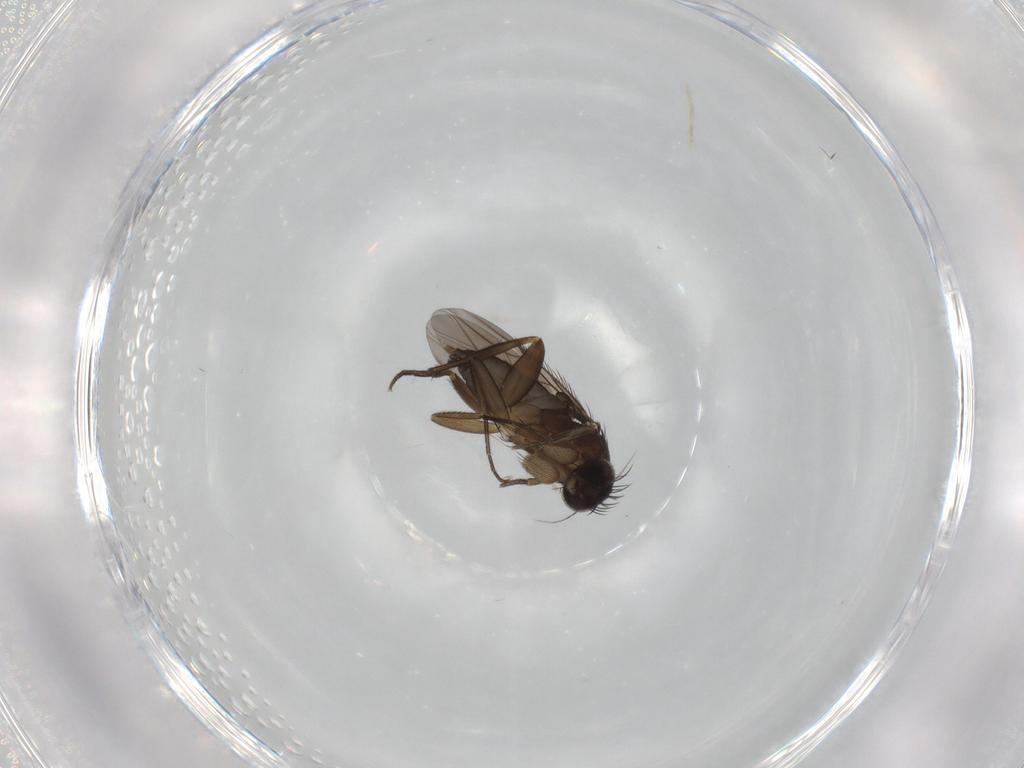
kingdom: Animalia
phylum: Arthropoda
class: Insecta
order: Diptera
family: Phoridae
